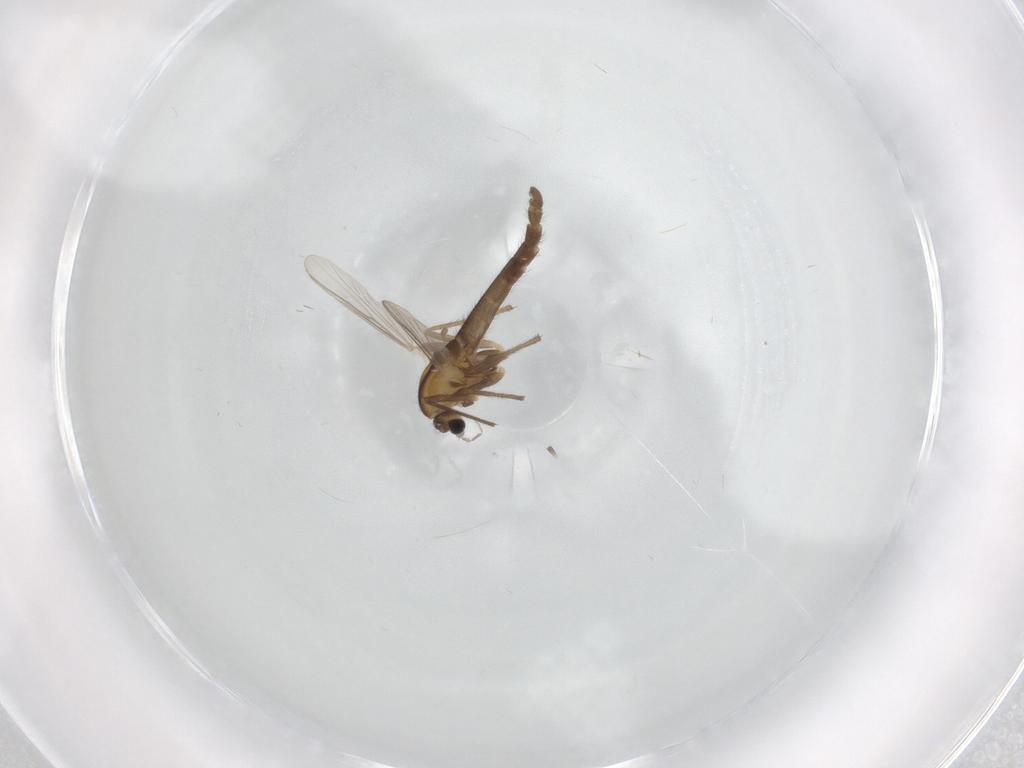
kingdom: Animalia
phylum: Arthropoda
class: Insecta
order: Diptera
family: Chironomidae
